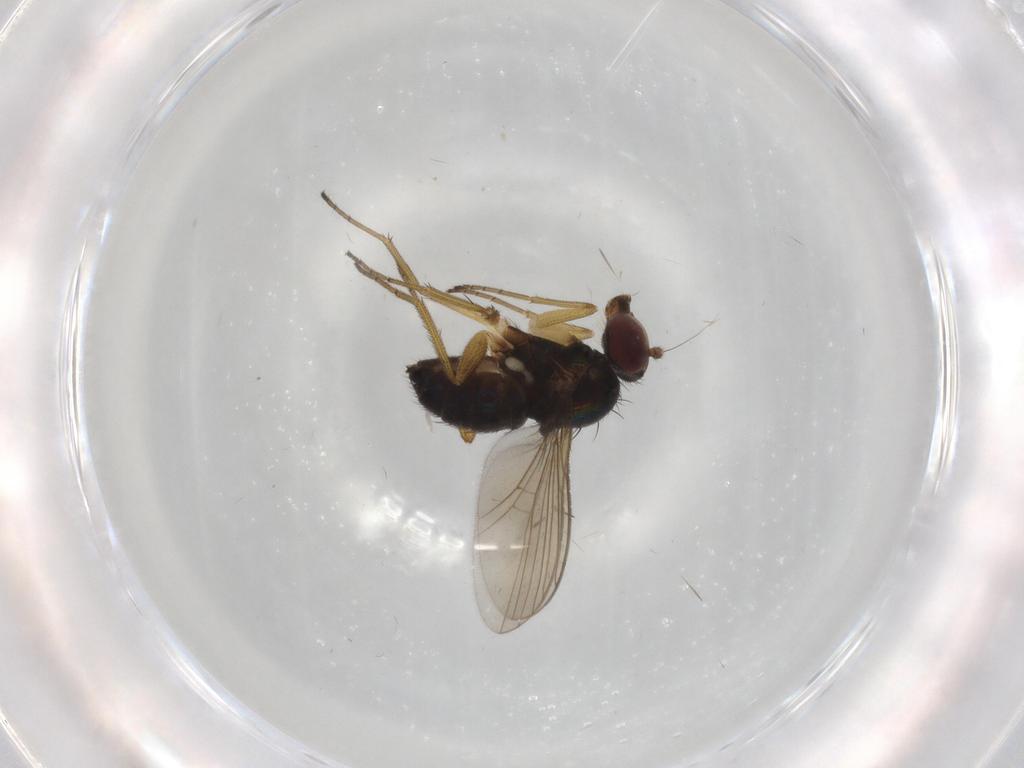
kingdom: Animalia
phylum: Arthropoda
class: Insecta
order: Diptera
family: Dolichopodidae
